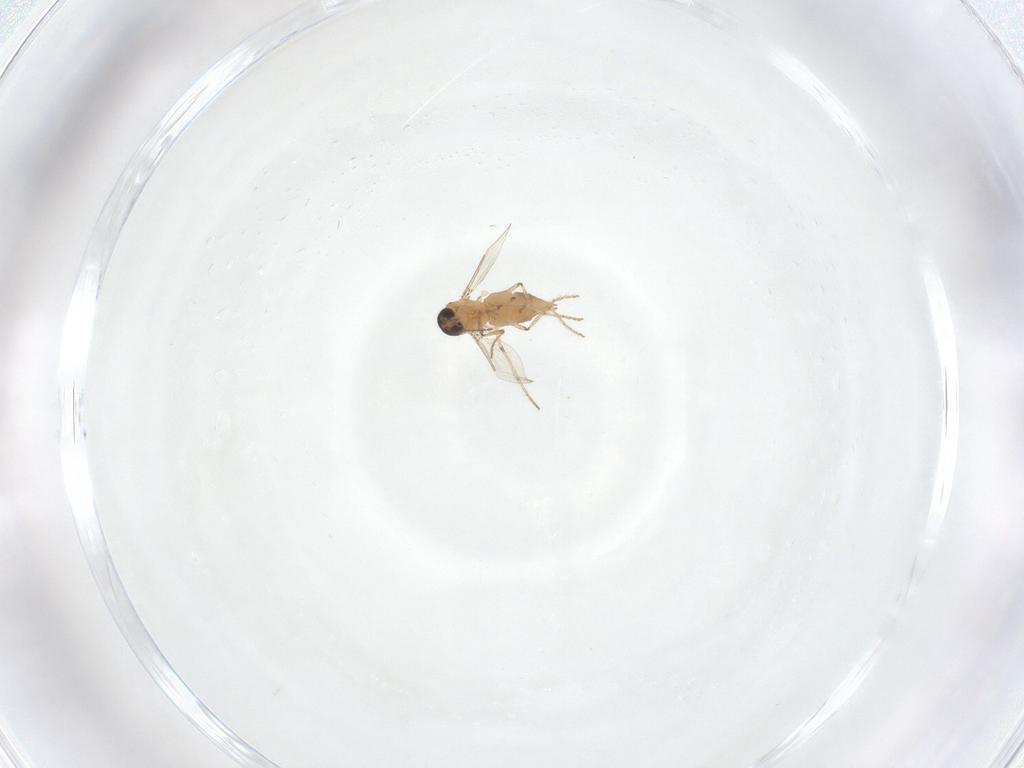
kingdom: Animalia
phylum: Arthropoda
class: Insecta
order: Diptera
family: Ceratopogonidae
